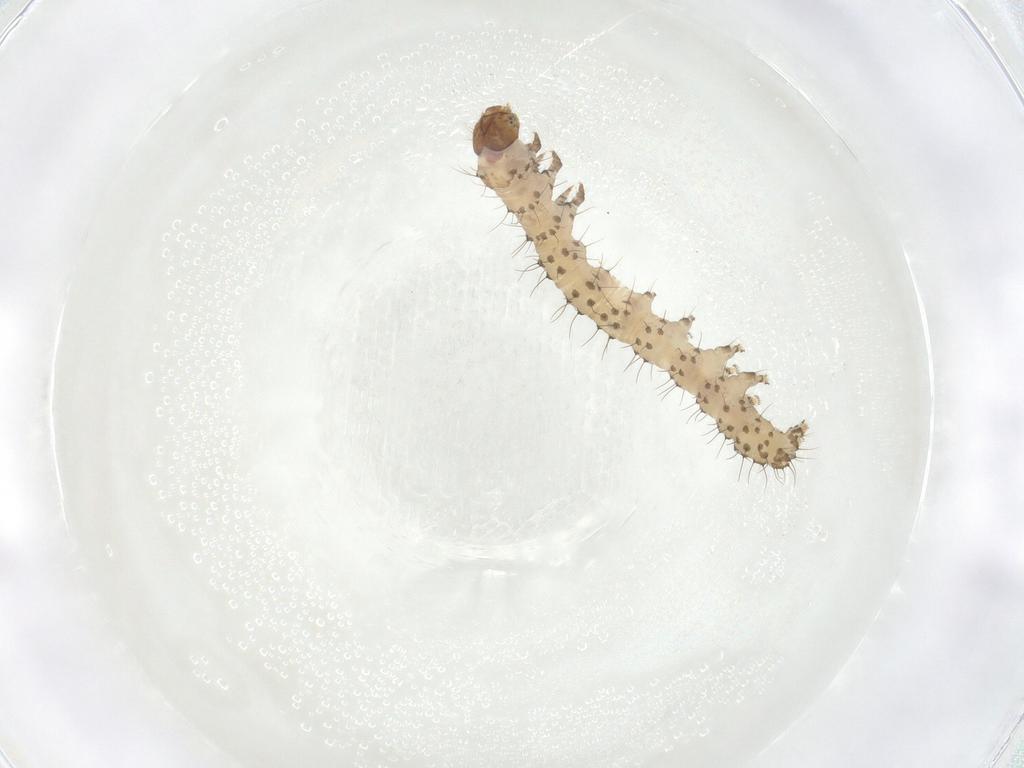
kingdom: Animalia
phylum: Arthropoda
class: Insecta
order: Lepidoptera
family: Noctuidae
